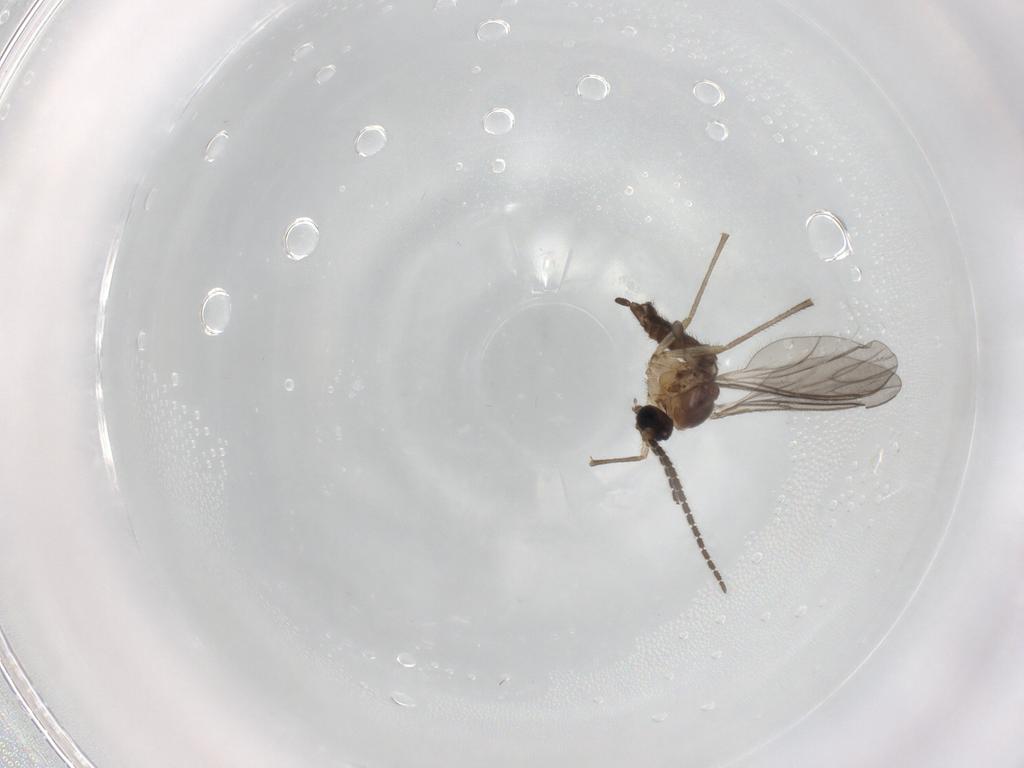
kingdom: Animalia
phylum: Arthropoda
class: Insecta
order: Diptera
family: Sciaridae
